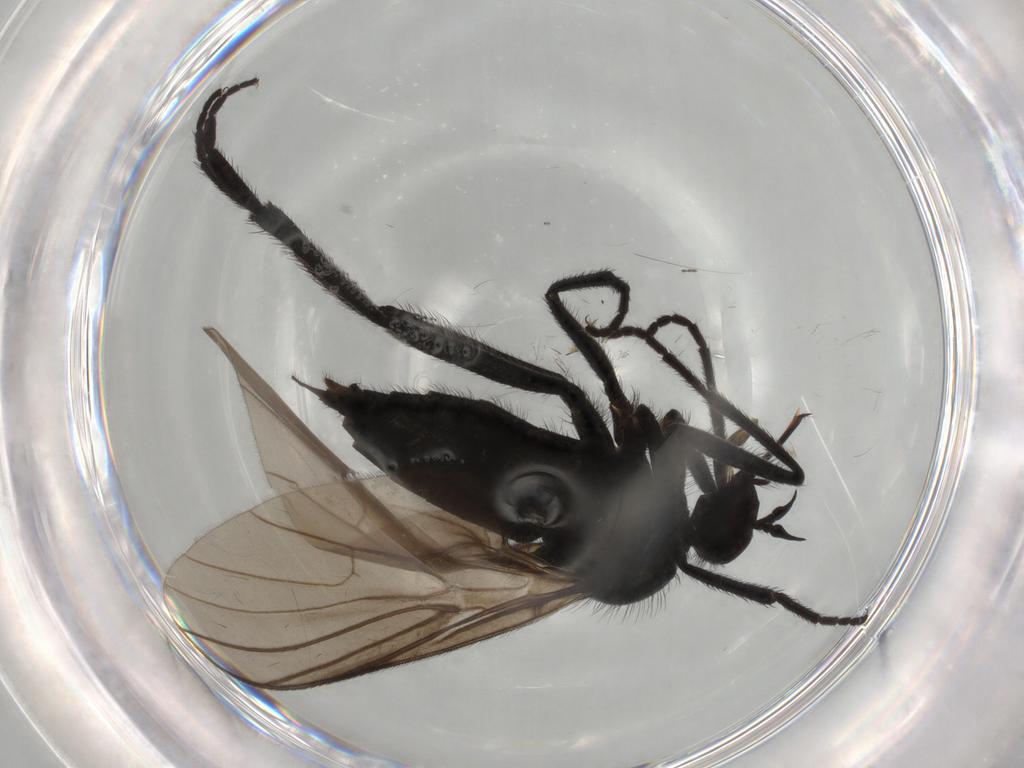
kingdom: Animalia
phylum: Arthropoda
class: Insecta
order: Diptera
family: Empididae
